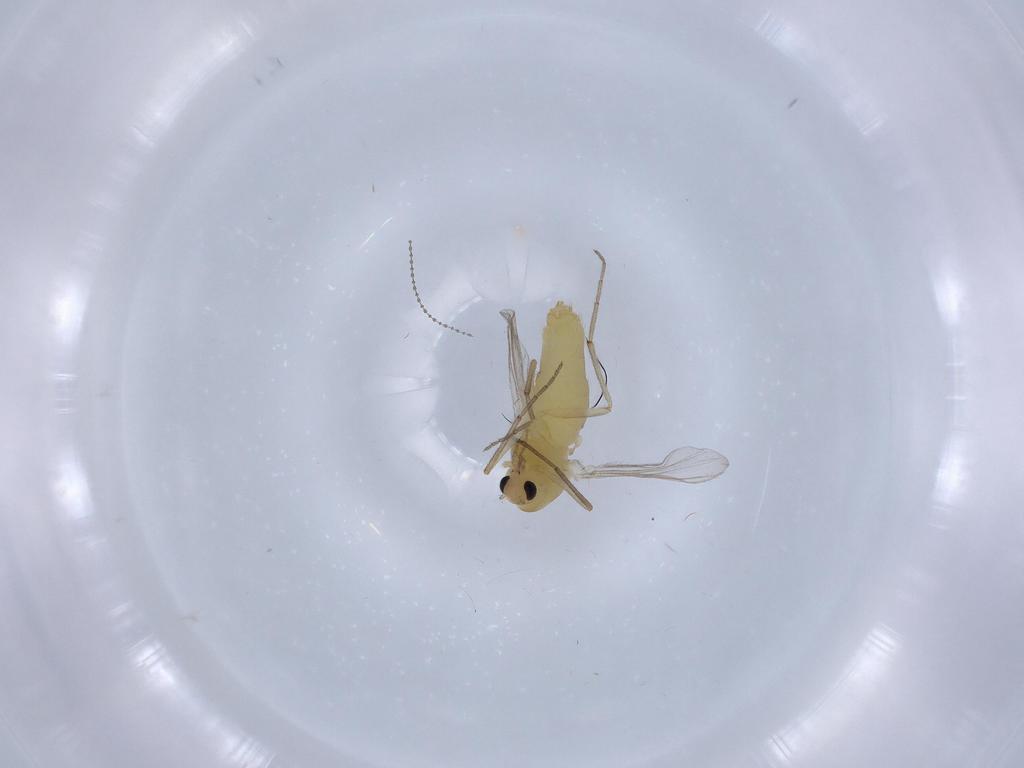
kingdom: Animalia
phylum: Arthropoda
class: Insecta
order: Diptera
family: Chironomidae
